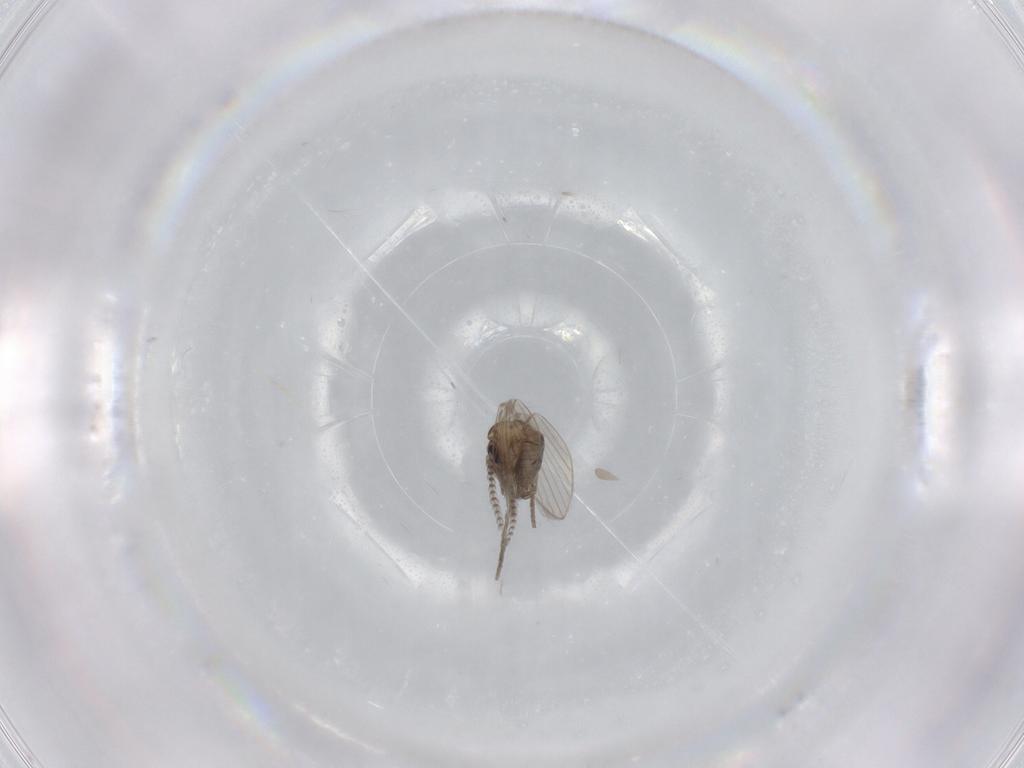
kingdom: Animalia
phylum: Arthropoda
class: Insecta
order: Diptera
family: Psychodidae
